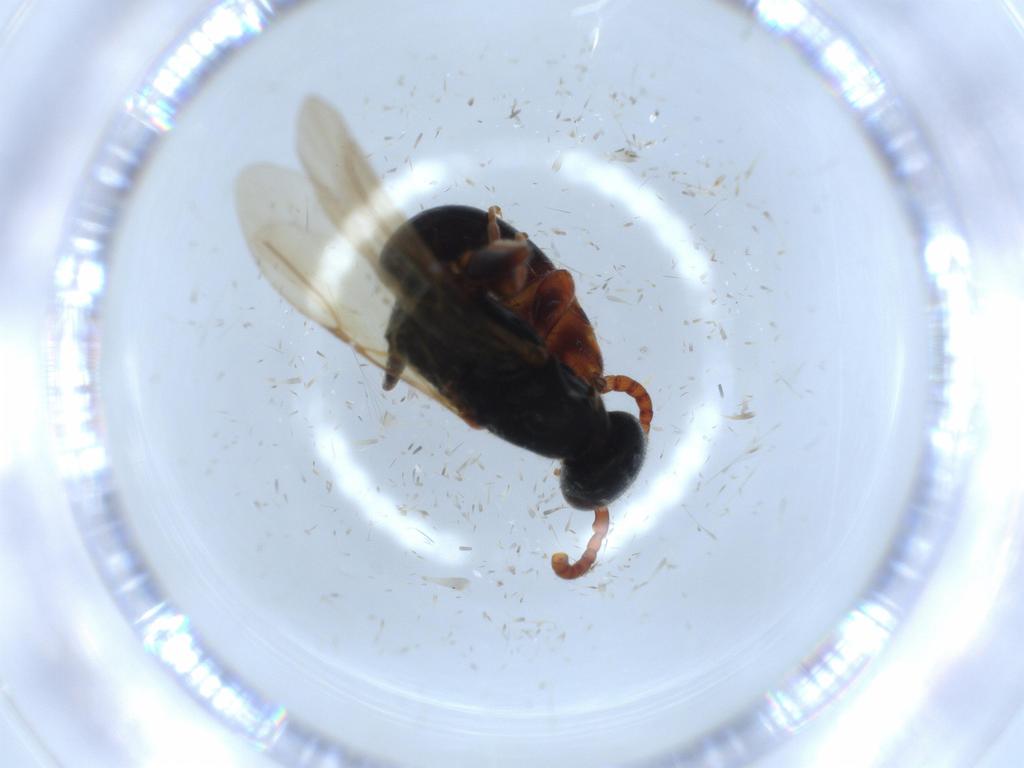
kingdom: Animalia
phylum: Arthropoda
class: Insecta
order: Hymenoptera
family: Bethylidae
